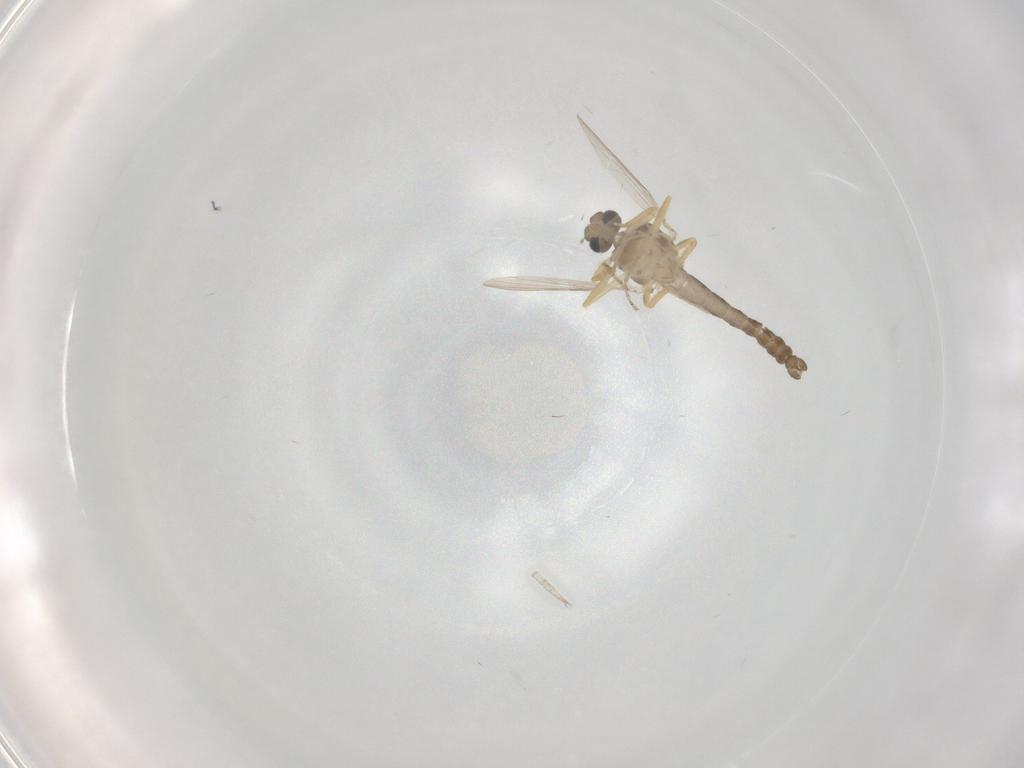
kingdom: Animalia
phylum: Arthropoda
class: Insecta
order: Diptera
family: Ceratopogonidae
